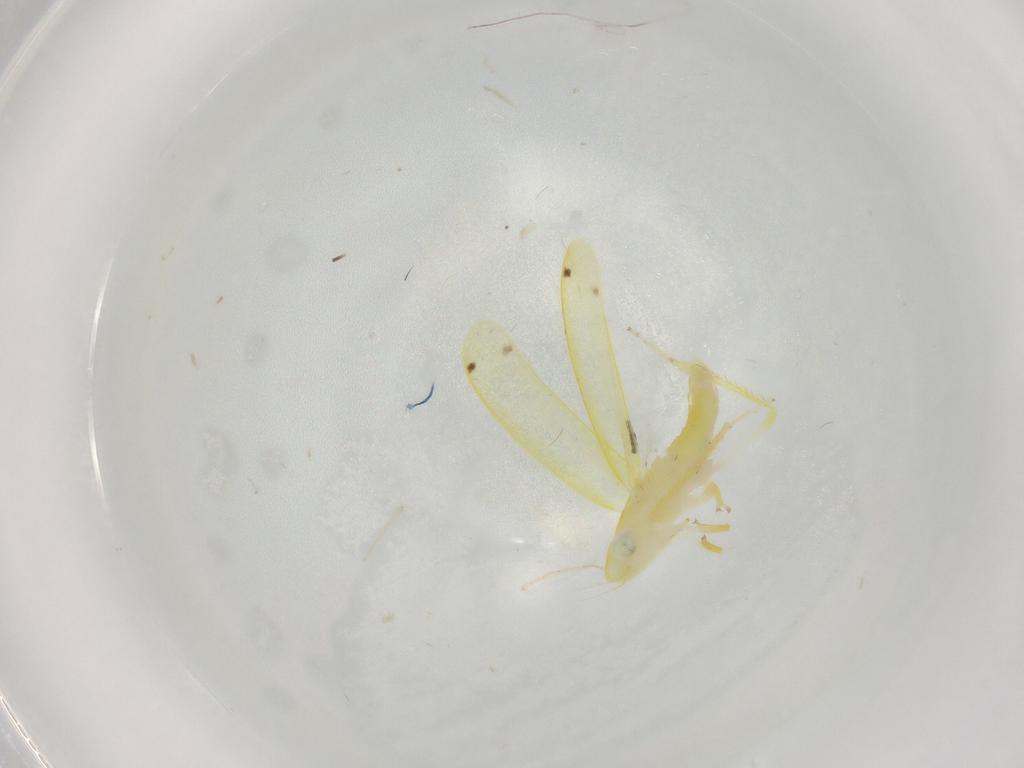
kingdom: Animalia
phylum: Arthropoda
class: Insecta
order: Hemiptera
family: Cicadellidae
